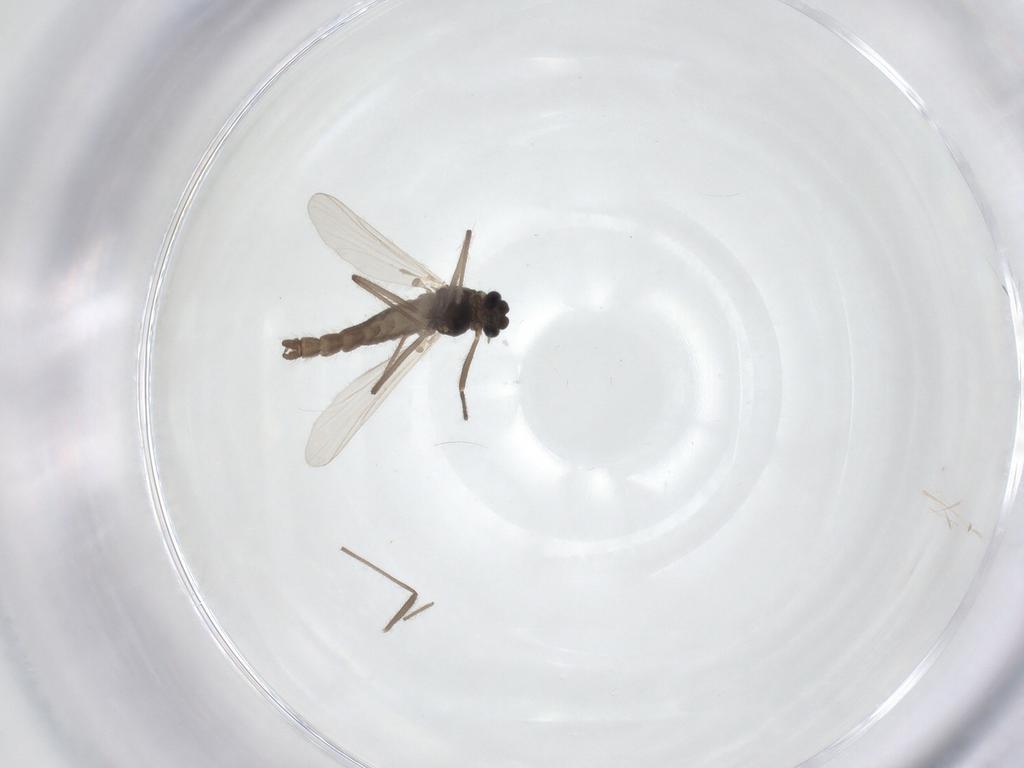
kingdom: Animalia
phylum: Arthropoda
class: Insecta
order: Diptera
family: Chironomidae
